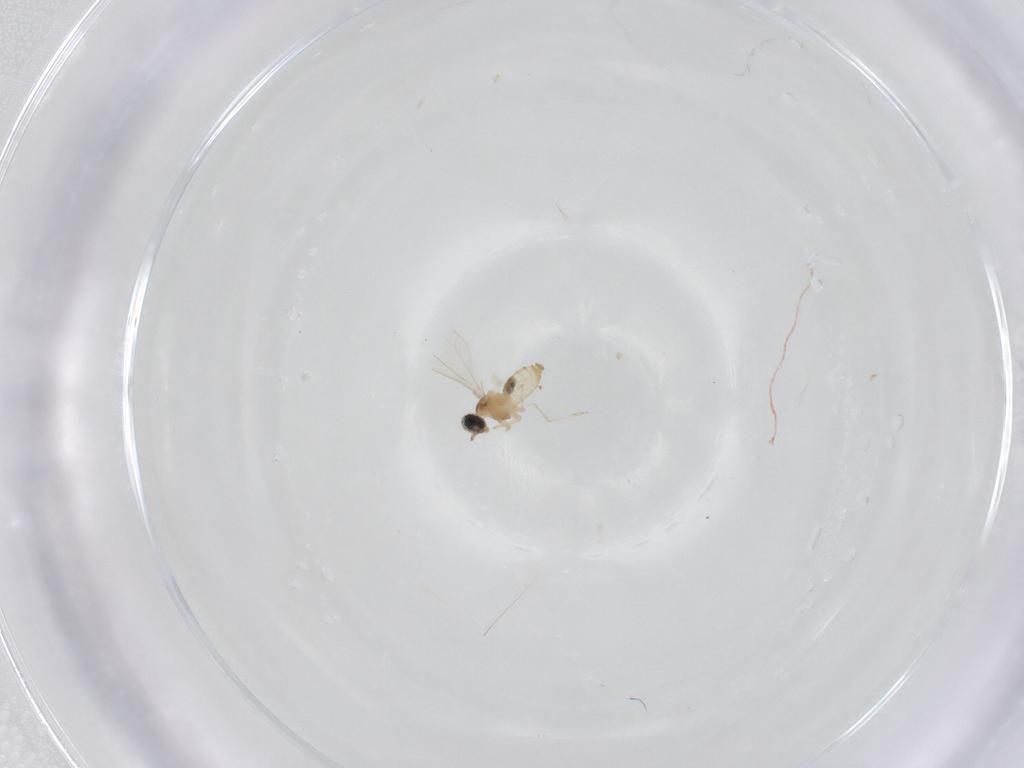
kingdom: Animalia
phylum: Arthropoda
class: Insecta
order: Diptera
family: Cecidomyiidae
